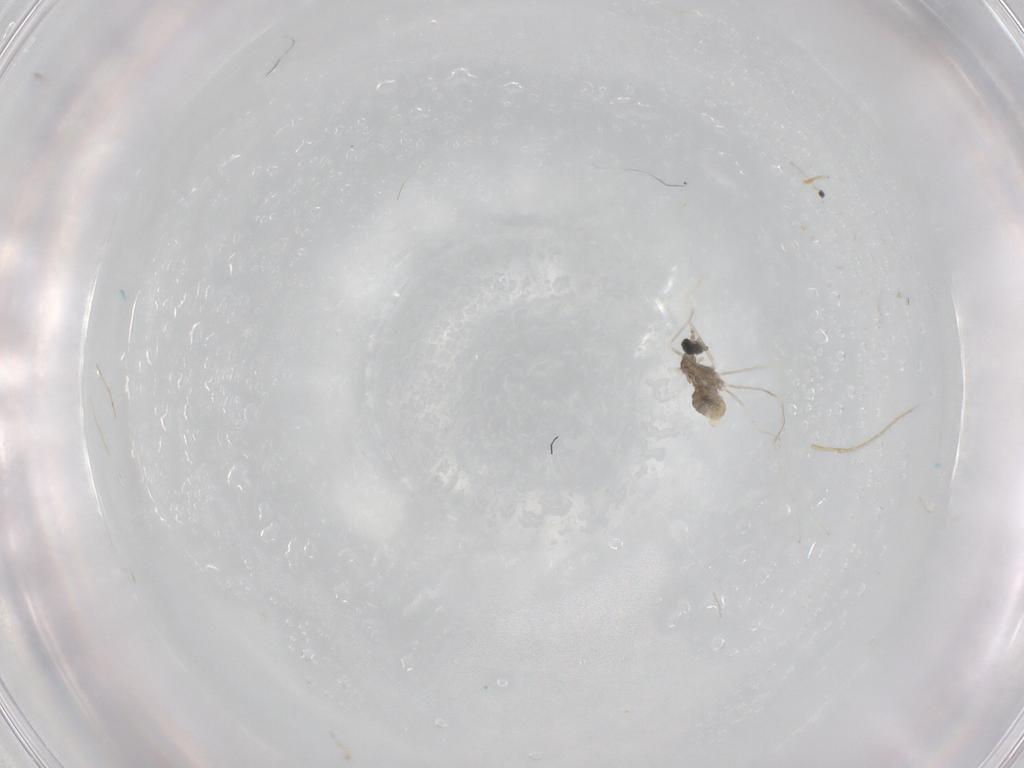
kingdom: Animalia
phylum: Arthropoda
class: Insecta
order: Diptera
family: Cecidomyiidae
